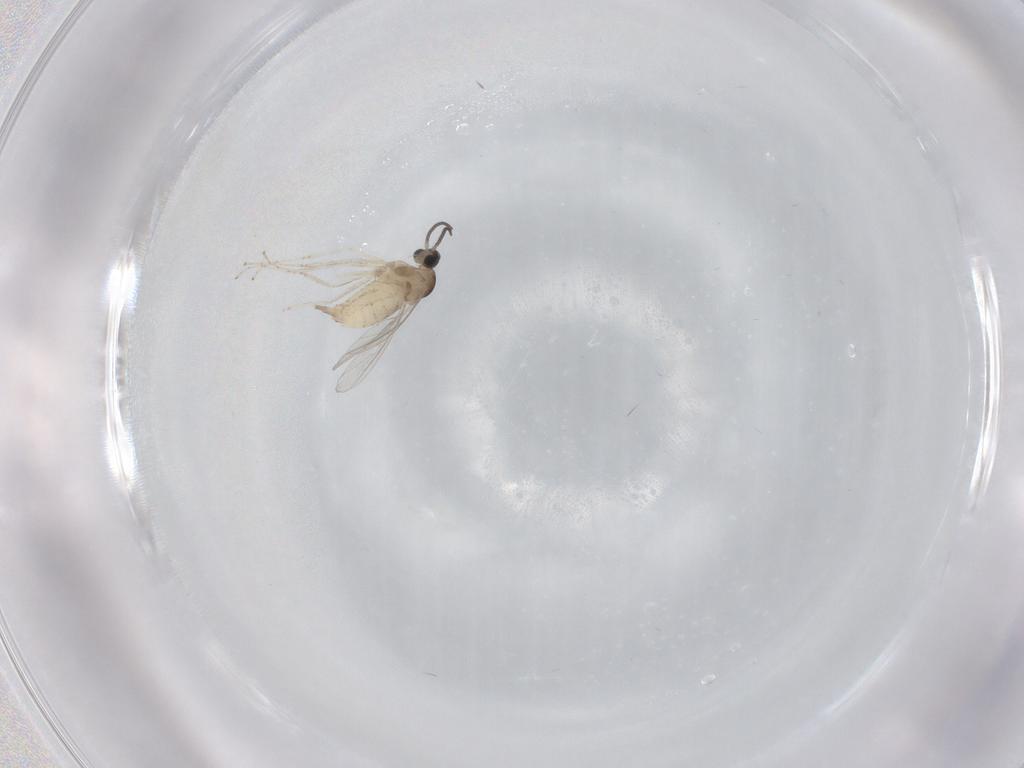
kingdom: Animalia
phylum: Arthropoda
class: Insecta
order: Diptera
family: Cecidomyiidae
